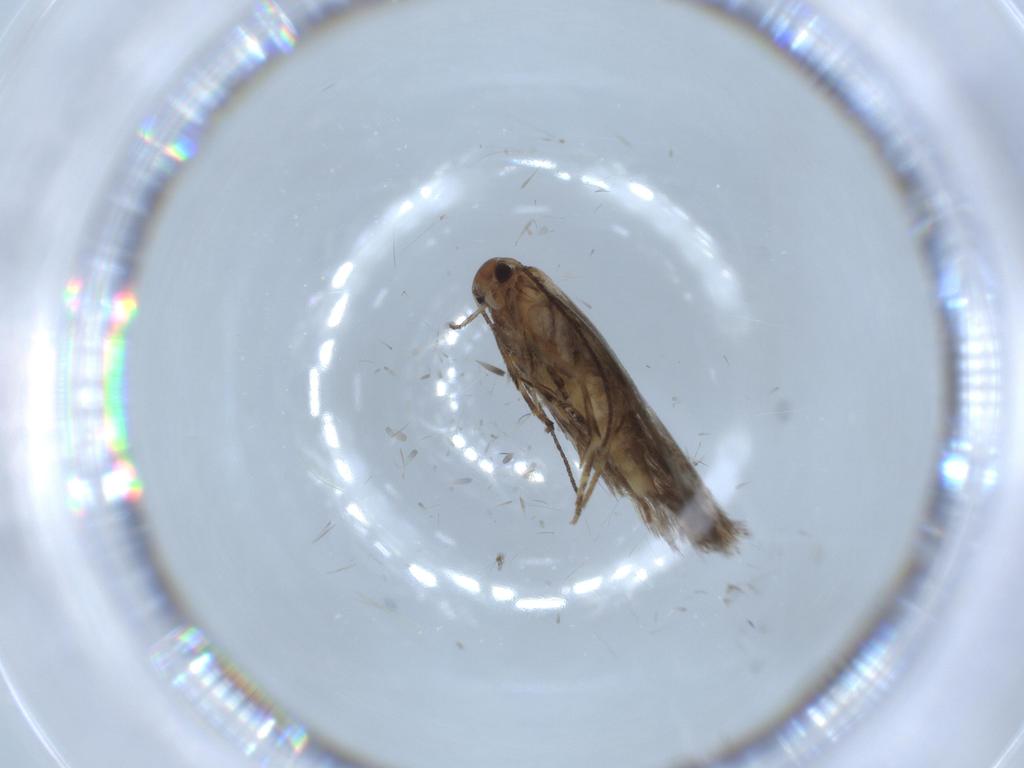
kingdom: Animalia
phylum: Arthropoda
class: Insecta
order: Lepidoptera
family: Elachistidae
